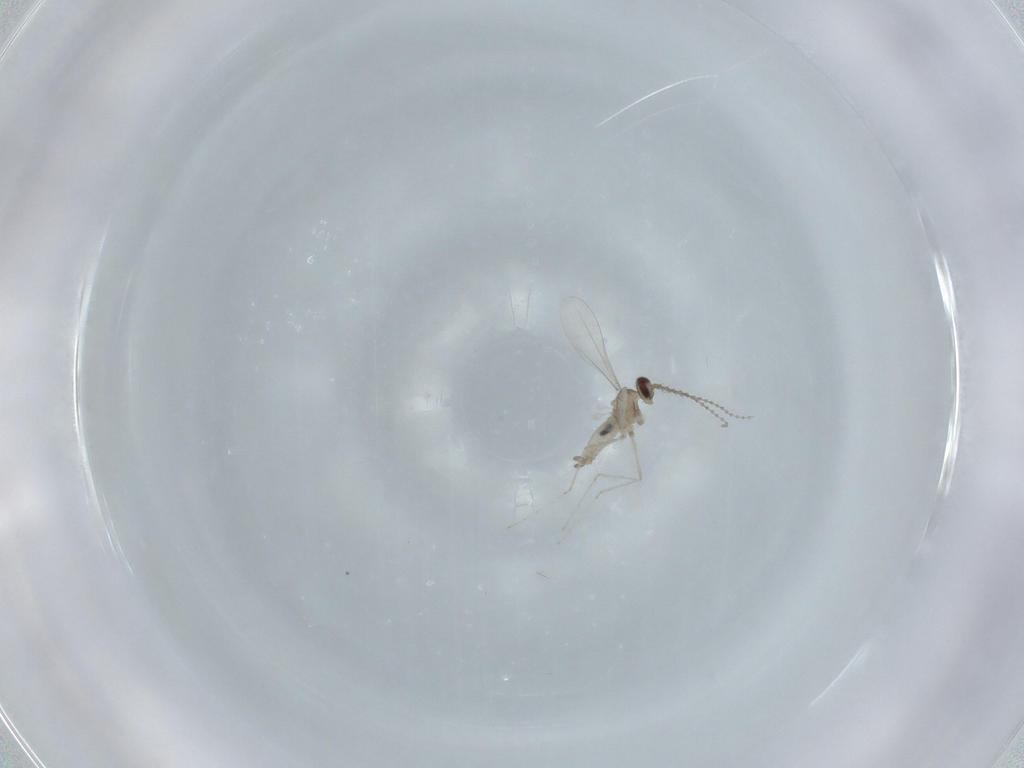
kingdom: Animalia
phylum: Arthropoda
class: Insecta
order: Diptera
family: Cecidomyiidae
